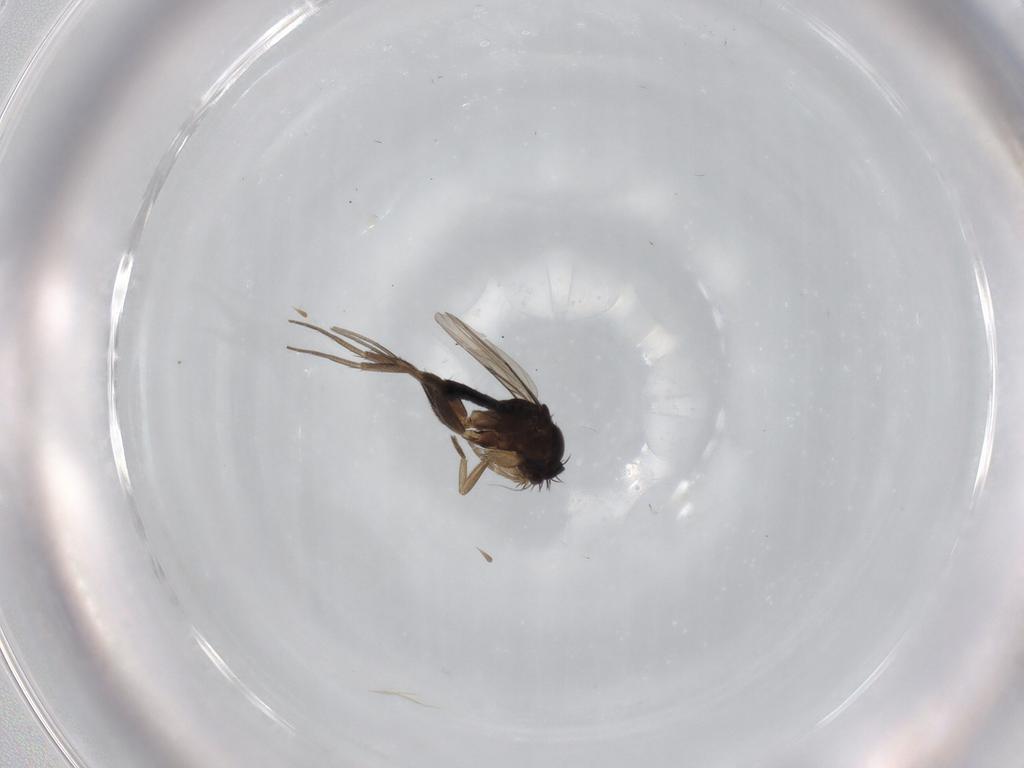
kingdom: Animalia
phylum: Arthropoda
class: Insecta
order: Diptera
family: Phoridae
